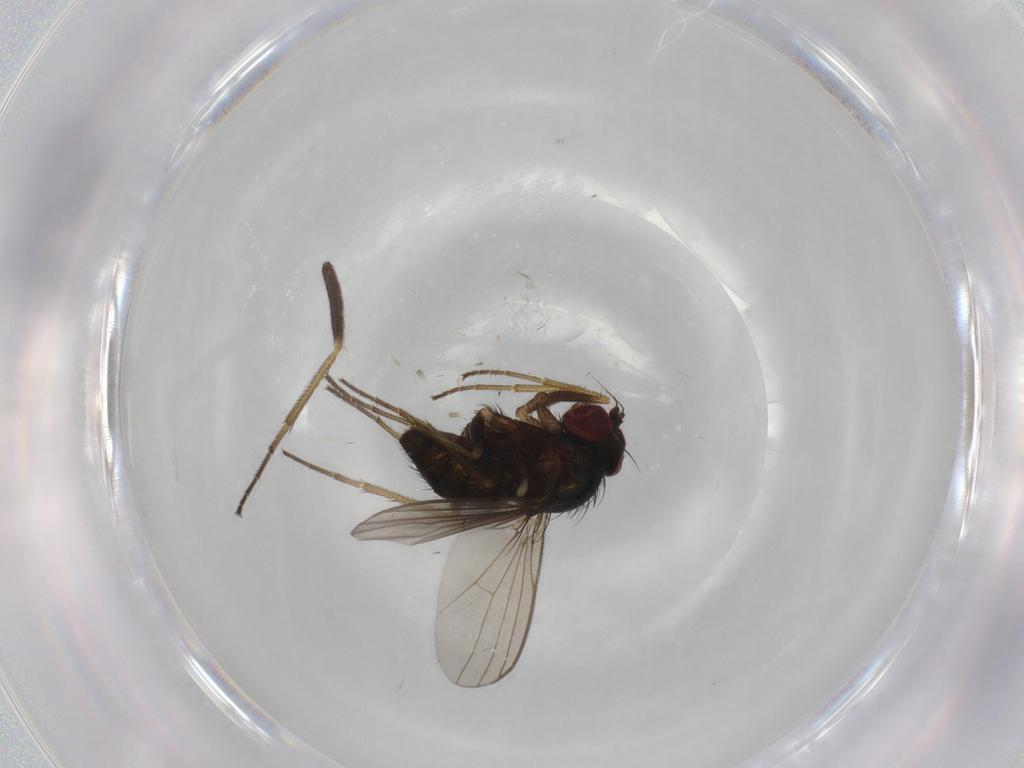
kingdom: Animalia
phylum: Arthropoda
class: Insecta
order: Diptera
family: Dolichopodidae
